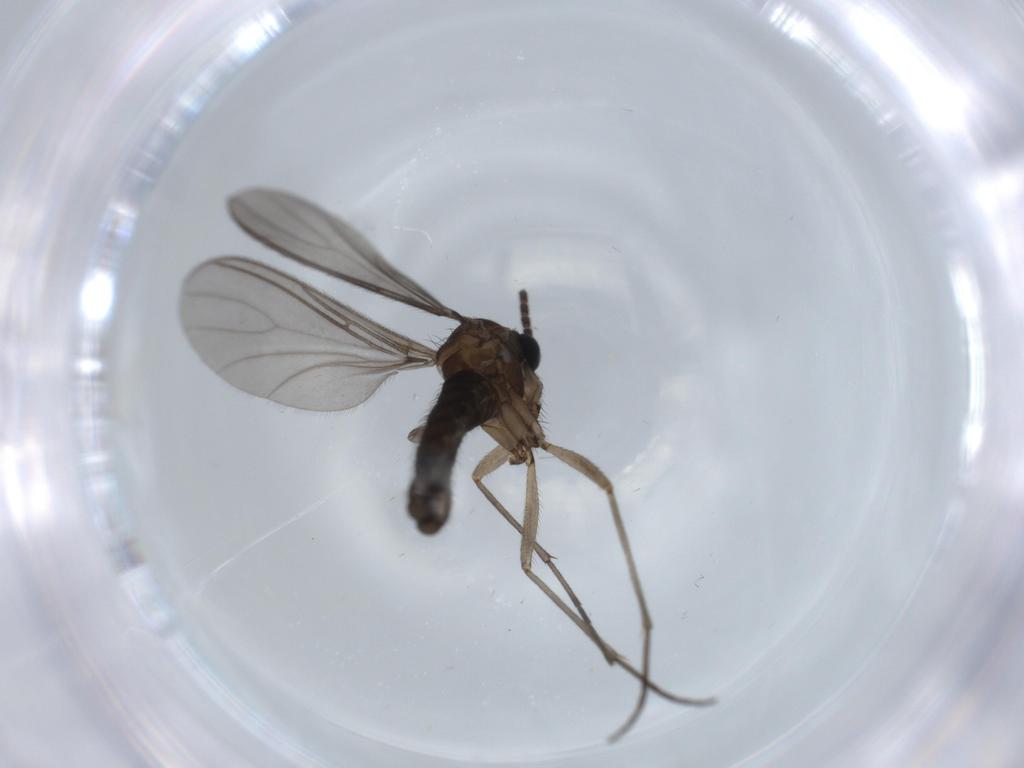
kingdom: Animalia
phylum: Arthropoda
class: Insecta
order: Diptera
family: Sciaridae
